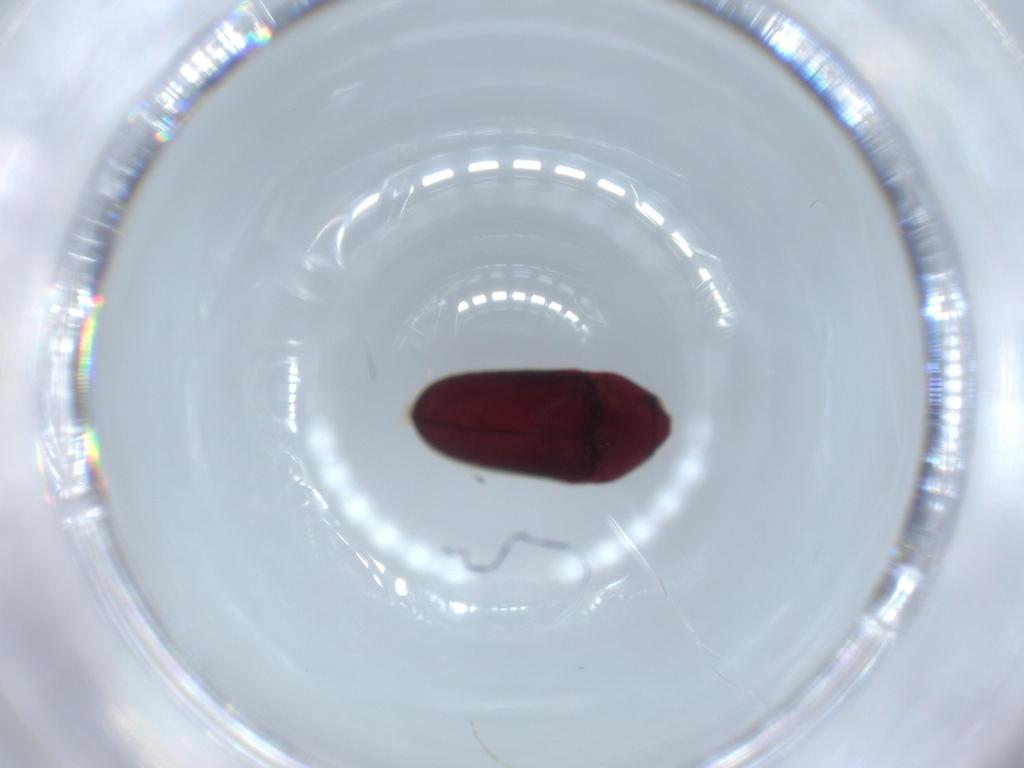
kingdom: Animalia
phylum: Arthropoda
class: Insecta
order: Coleoptera
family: Throscidae
